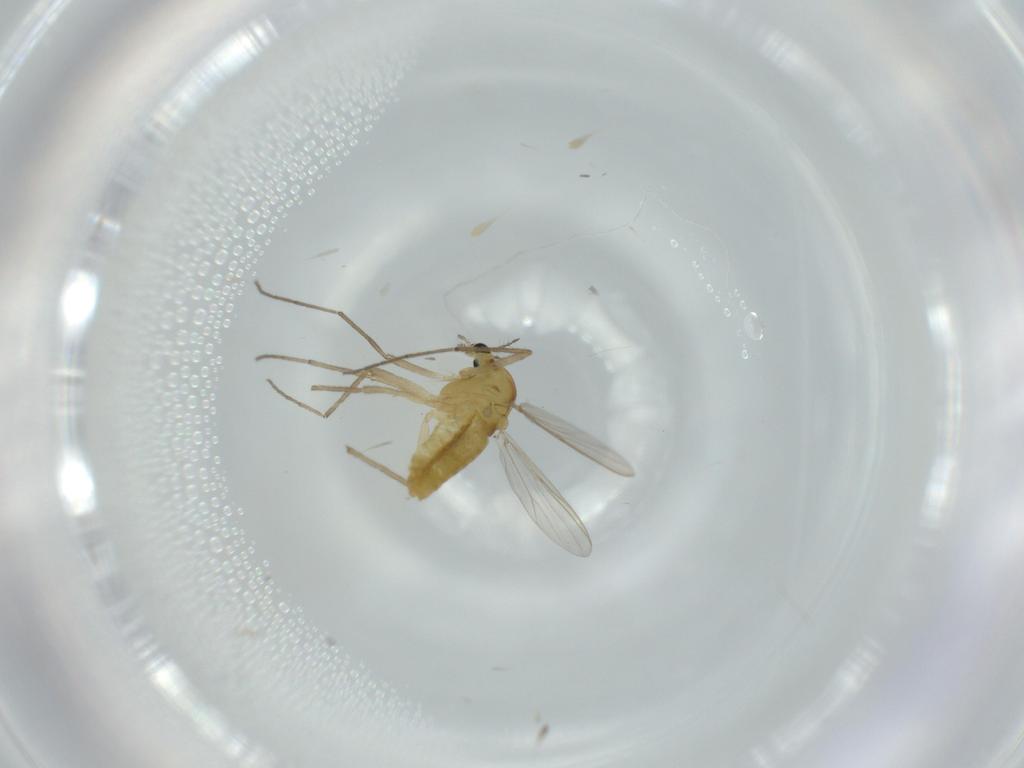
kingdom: Animalia
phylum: Arthropoda
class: Insecta
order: Diptera
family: Chironomidae
